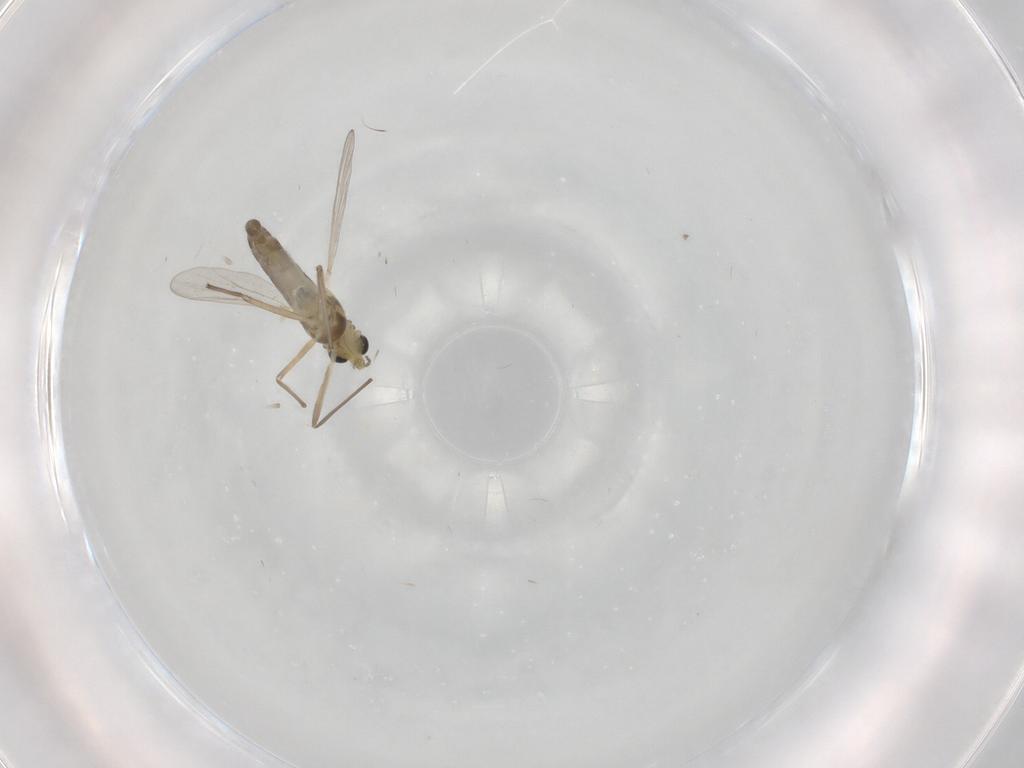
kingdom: Animalia
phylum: Arthropoda
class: Insecta
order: Diptera
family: Chironomidae
